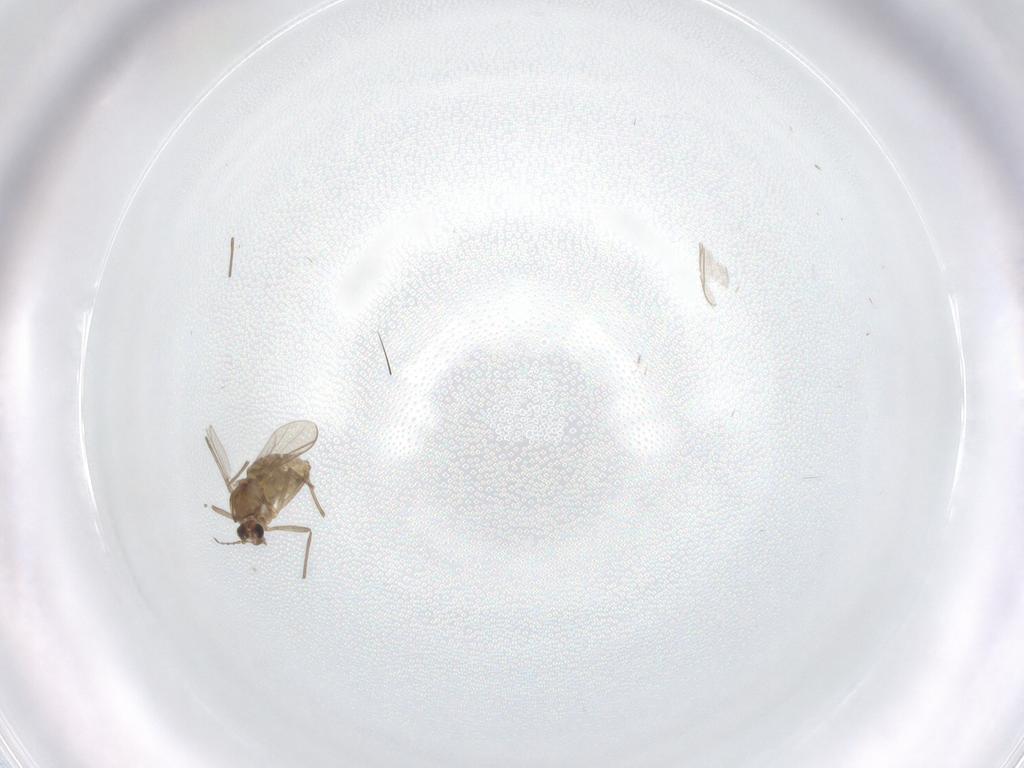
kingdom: Animalia
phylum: Arthropoda
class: Insecta
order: Diptera
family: Chironomidae
